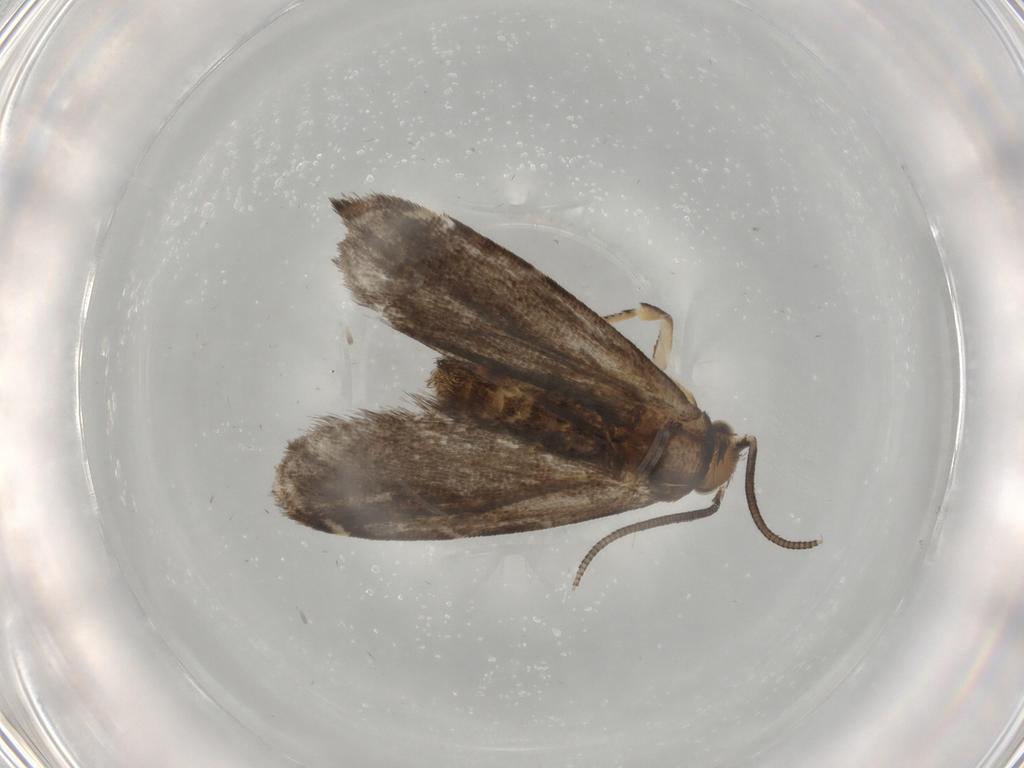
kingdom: Animalia
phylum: Arthropoda
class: Insecta
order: Lepidoptera
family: Dryadaulidae
